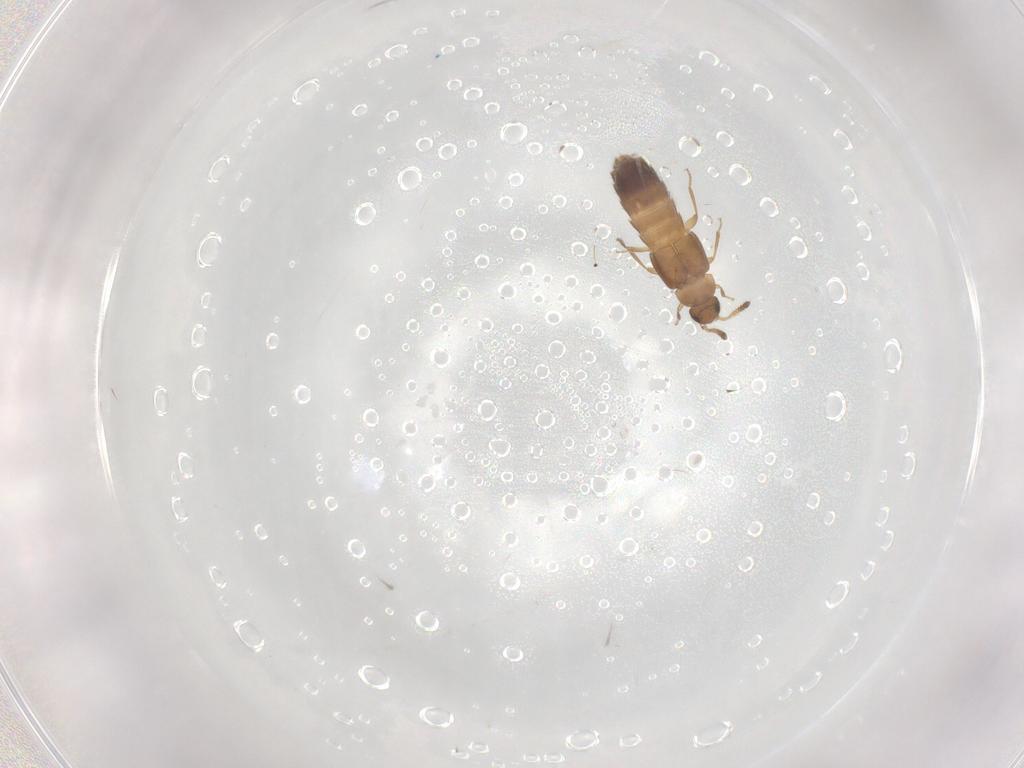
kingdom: Animalia
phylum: Arthropoda
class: Insecta
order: Coleoptera
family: Staphylinidae
